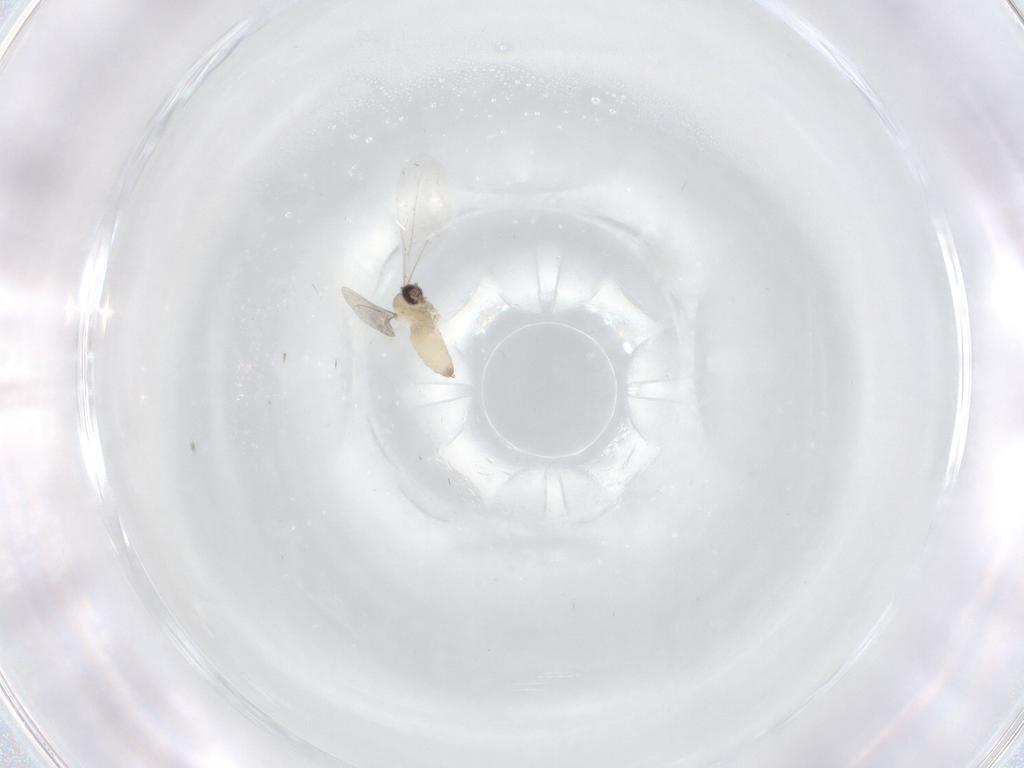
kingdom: Animalia
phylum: Arthropoda
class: Insecta
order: Diptera
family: Cecidomyiidae
